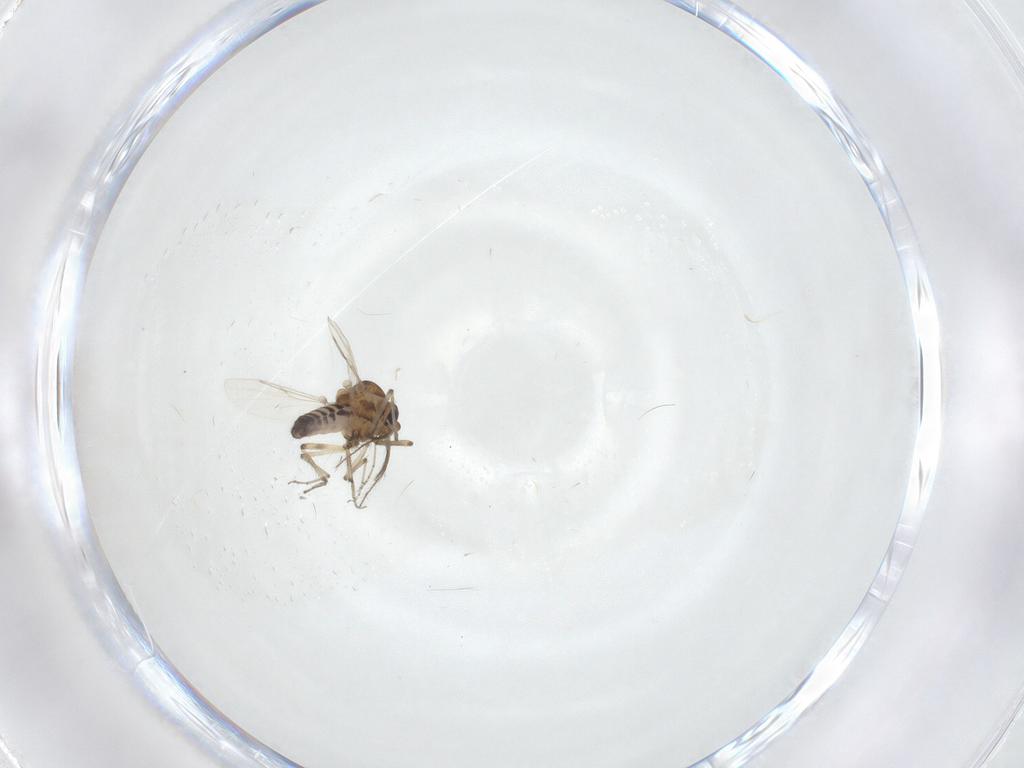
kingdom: Animalia
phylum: Arthropoda
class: Insecta
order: Diptera
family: Ceratopogonidae
